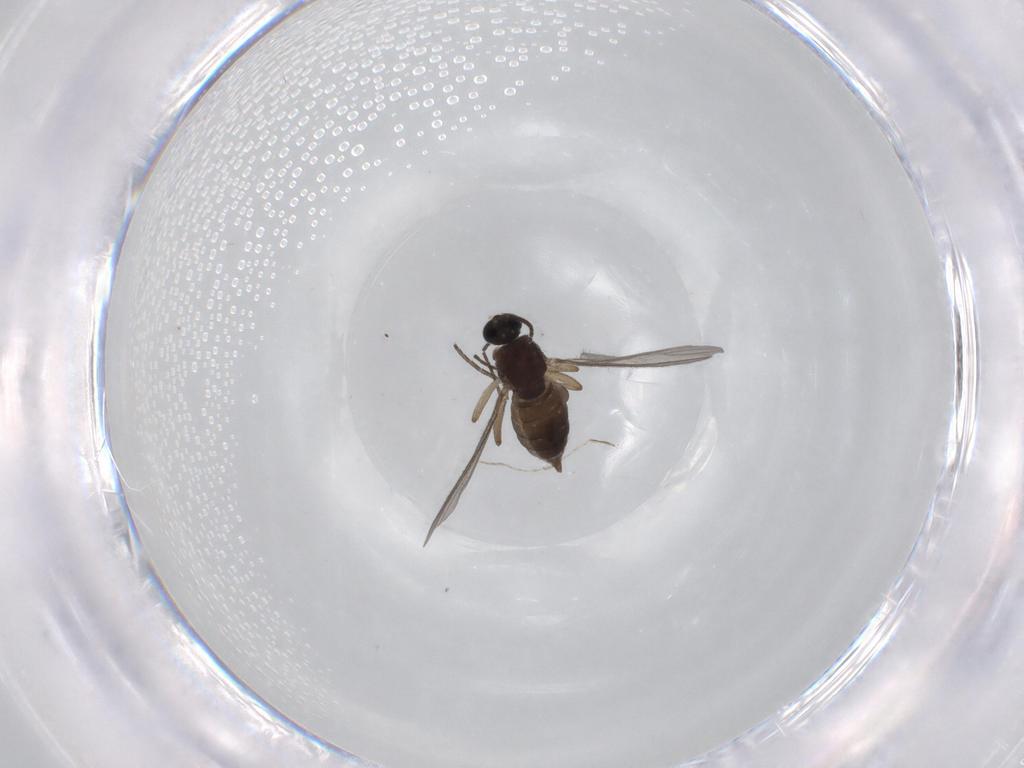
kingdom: Animalia
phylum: Arthropoda
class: Insecta
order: Diptera
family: Sciaridae
